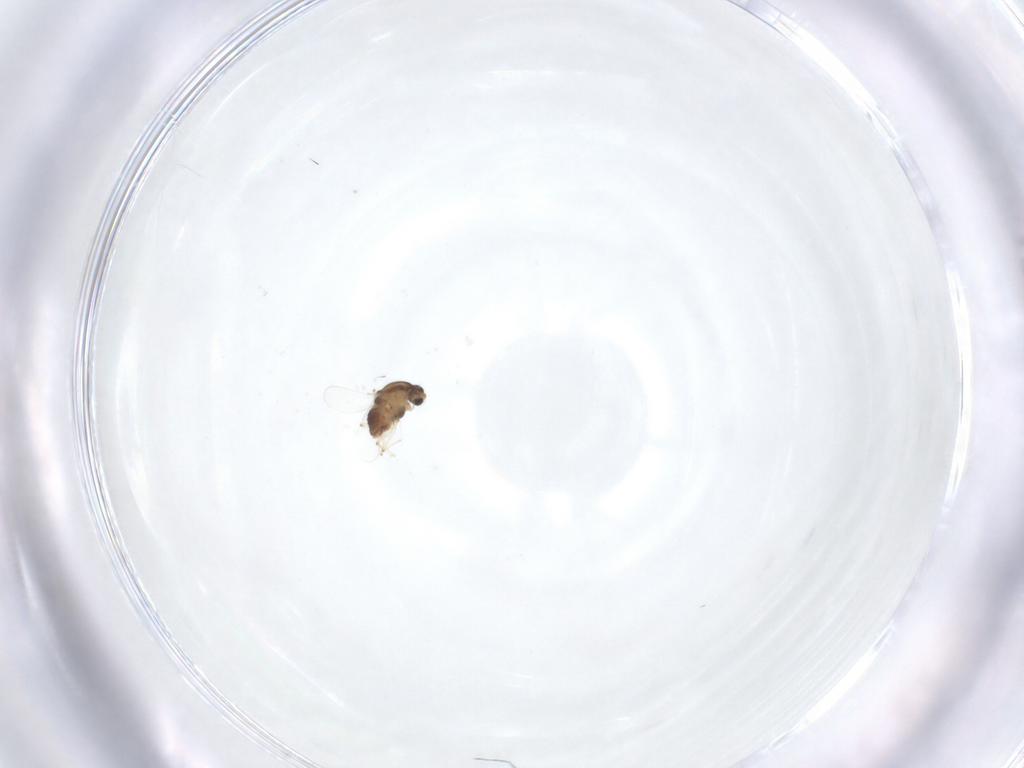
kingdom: Animalia
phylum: Arthropoda
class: Insecta
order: Diptera
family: Chironomidae
